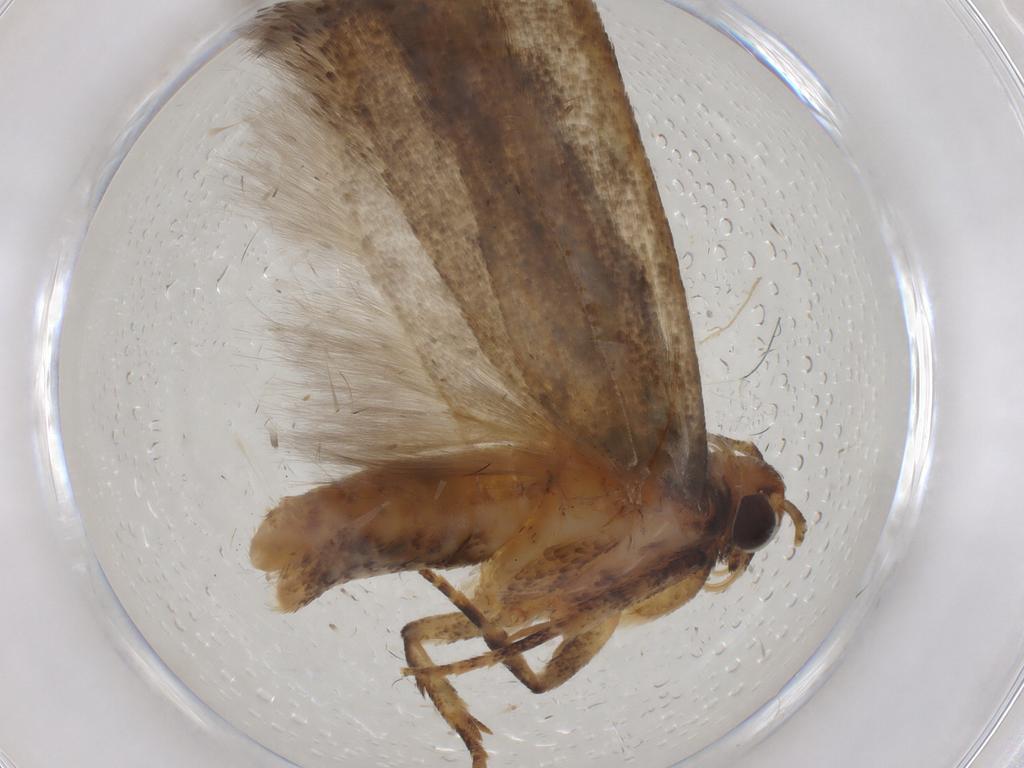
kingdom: Animalia
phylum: Arthropoda
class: Insecta
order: Lepidoptera
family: Gelechiidae
